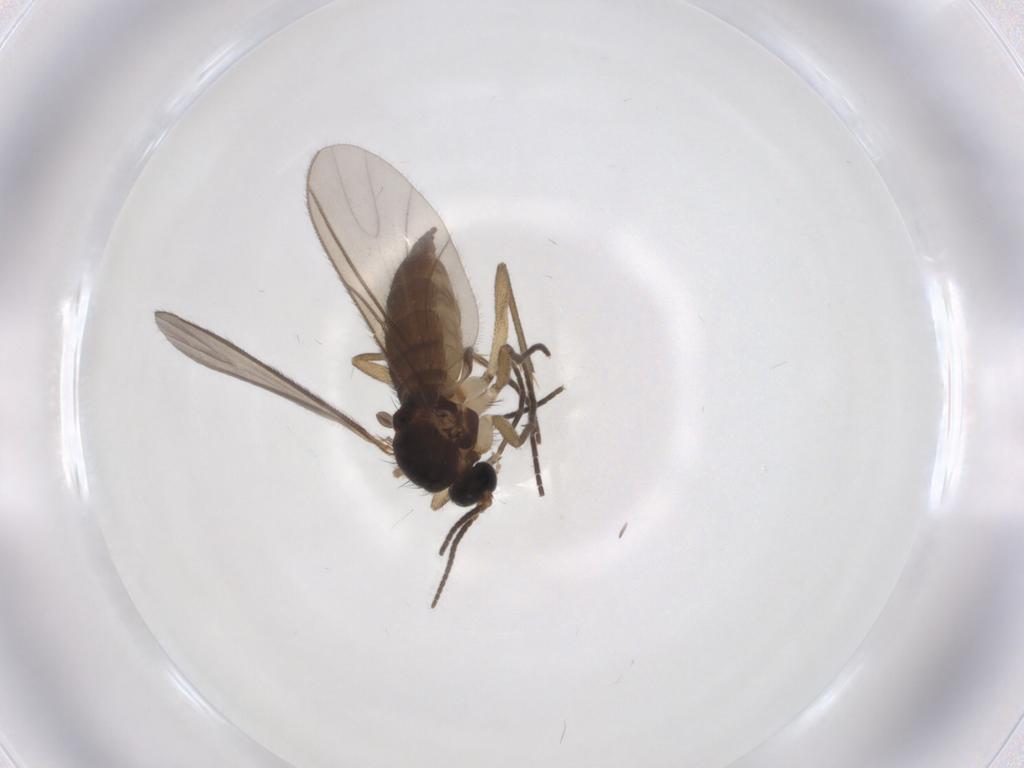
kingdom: Animalia
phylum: Arthropoda
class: Insecta
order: Diptera
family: Sciaridae
